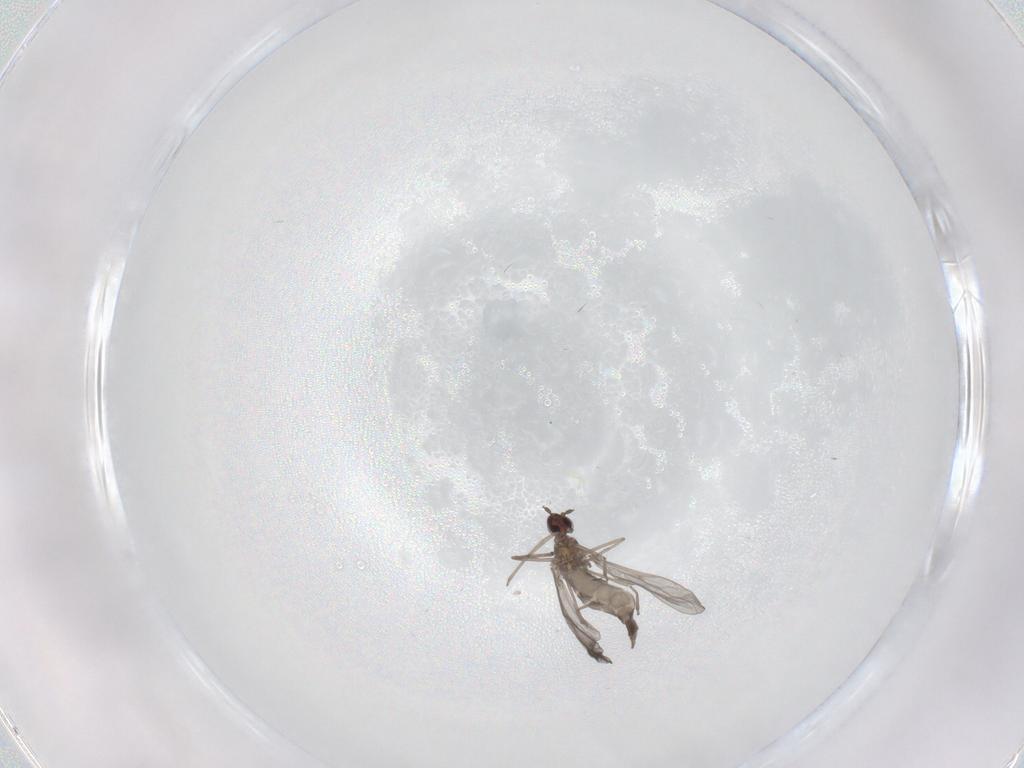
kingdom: Animalia
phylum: Arthropoda
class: Insecta
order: Diptera
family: Cecidomyiidae
